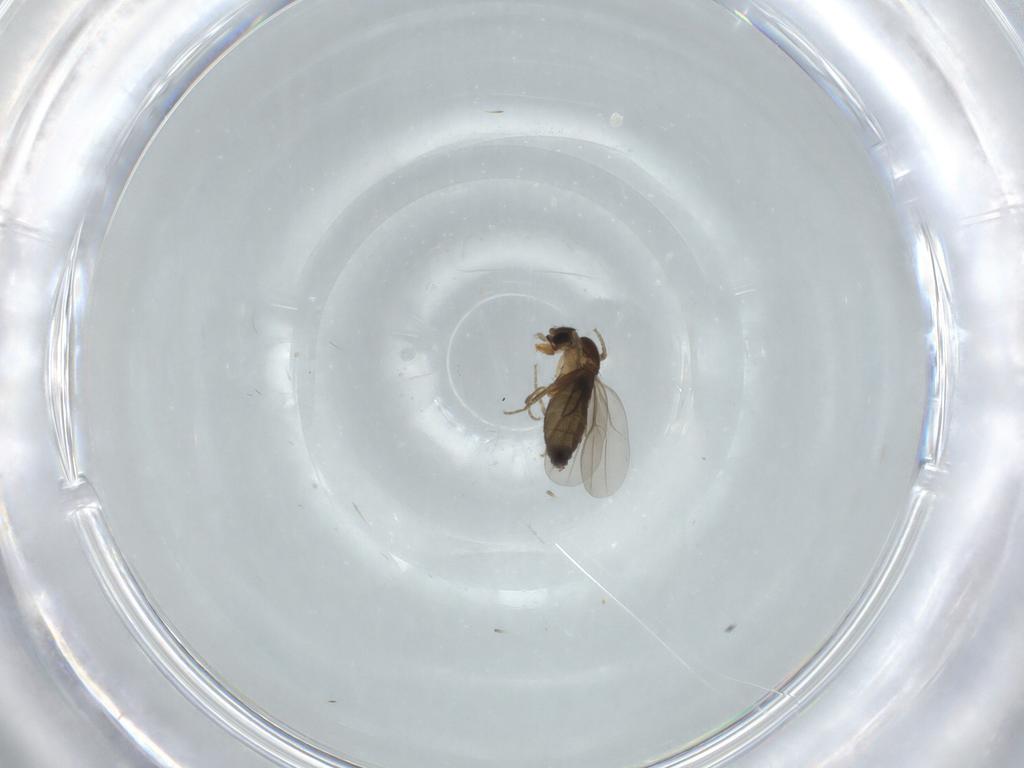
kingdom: Animalia
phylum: Arthropoda
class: Insecta
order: Diptera
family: Phoridae
